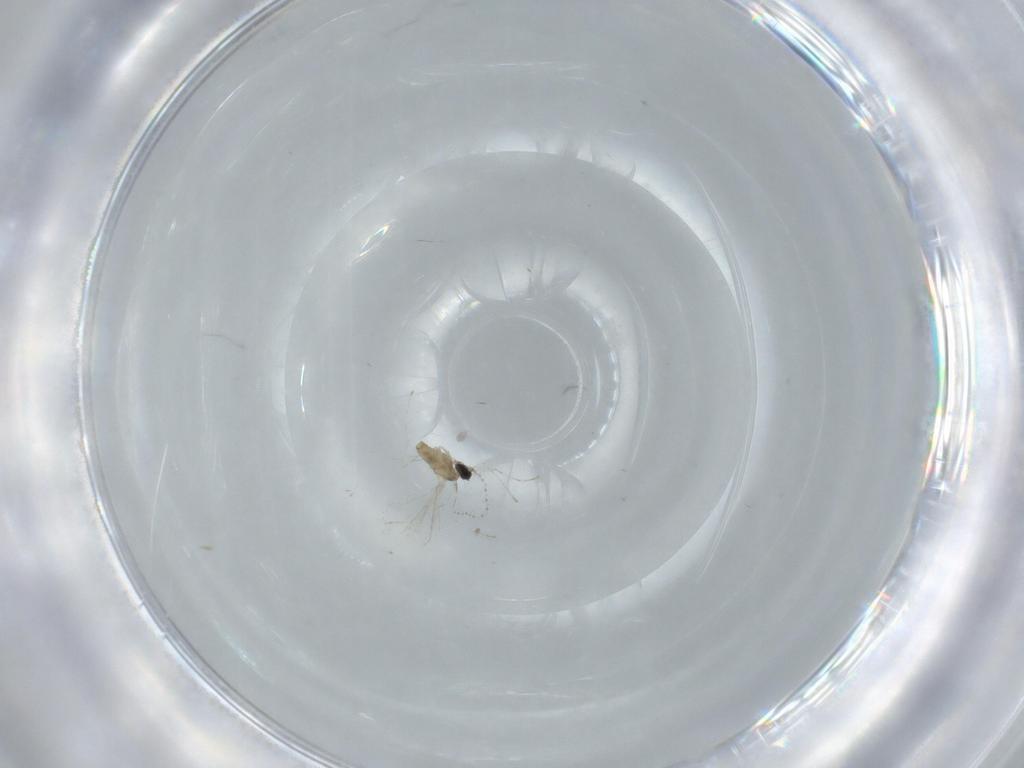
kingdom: Animalia
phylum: Arthropoda
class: Insecta
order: Diptera
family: Cecidomyiidae
